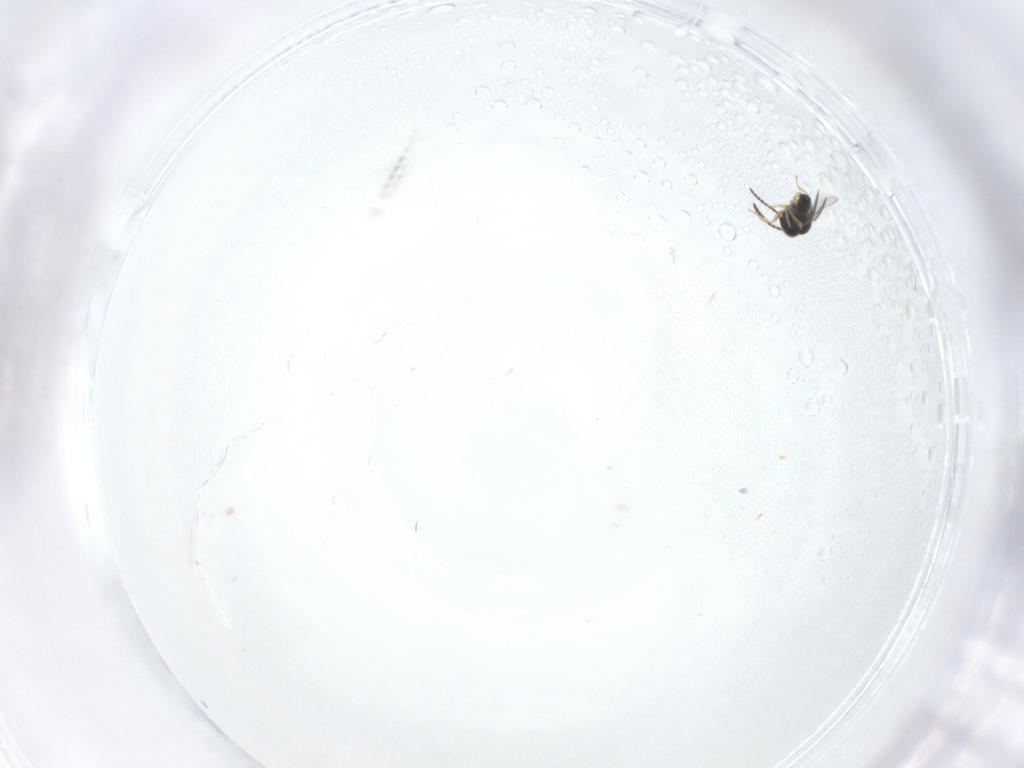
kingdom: Animalia
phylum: Arthropoda
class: Insecta
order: Hymenoptera
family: Scelionidae
